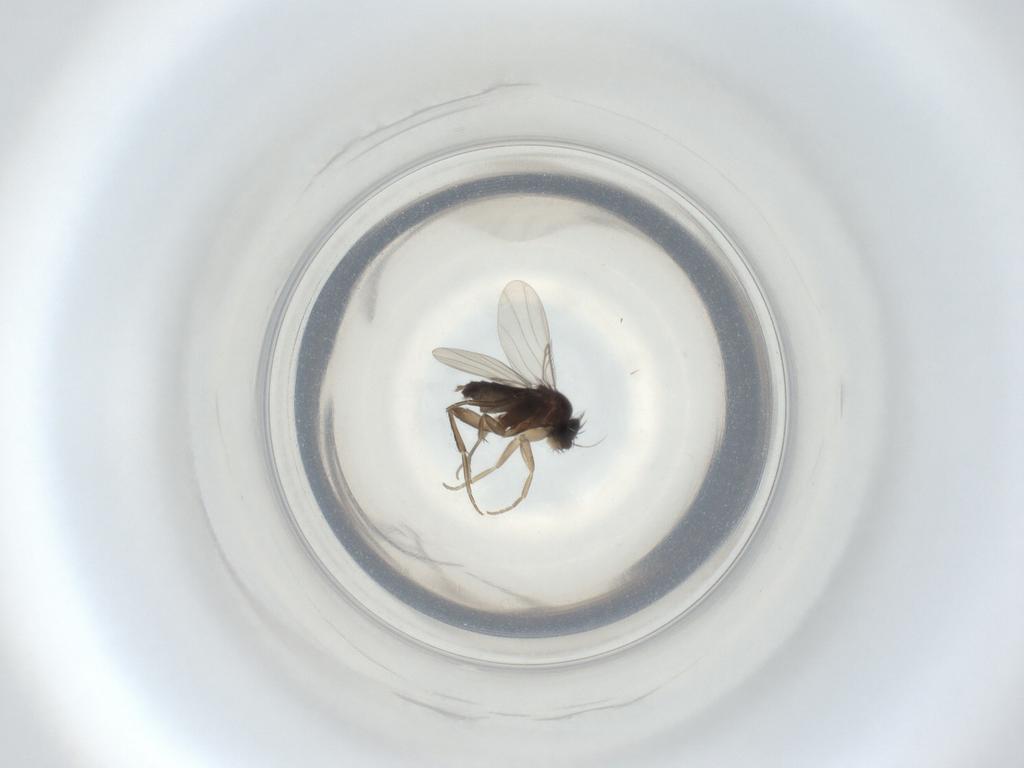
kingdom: Animalia
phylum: Arthropoda
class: Insecta
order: Diptera
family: Phoridae
